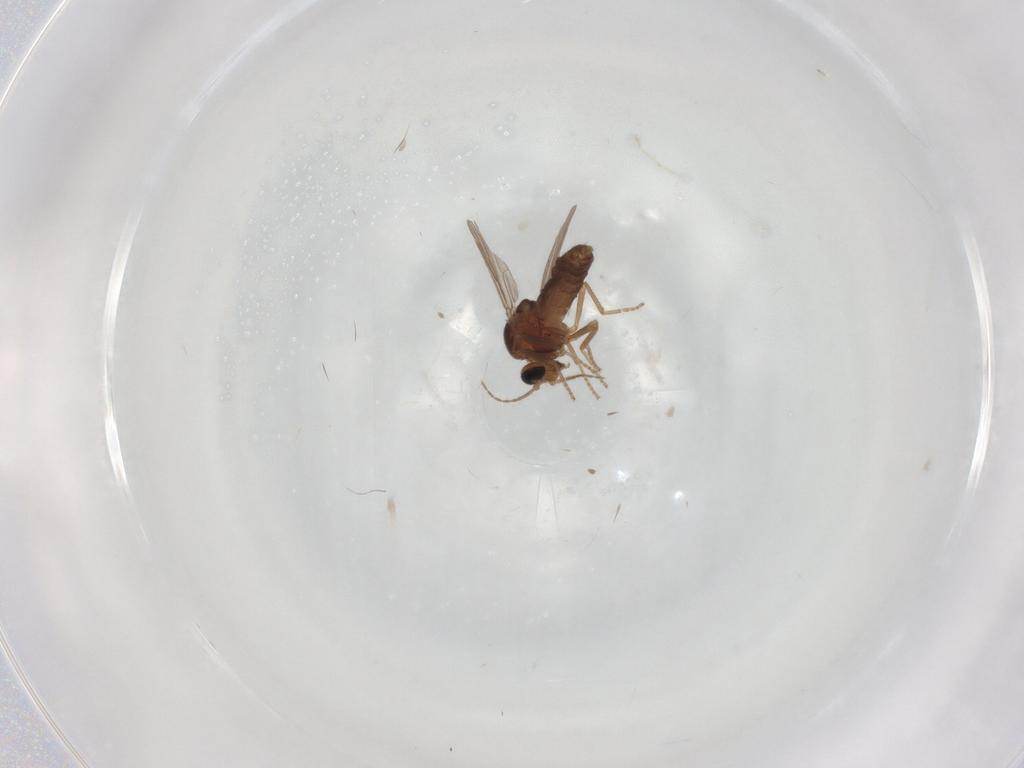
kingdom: Animalia
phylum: Arthropoda
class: Insecta
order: Diptera
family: Ceratopogonidae
